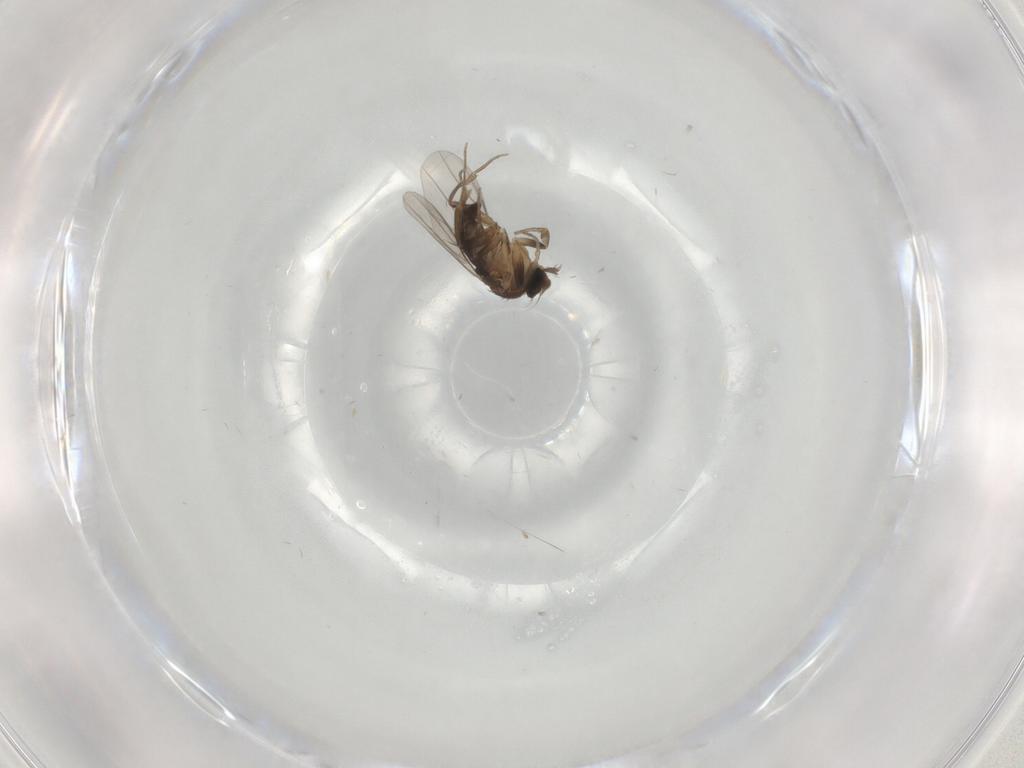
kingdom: Animalia
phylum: Arthropoda
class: Insecta
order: Diptera
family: Phoridae
